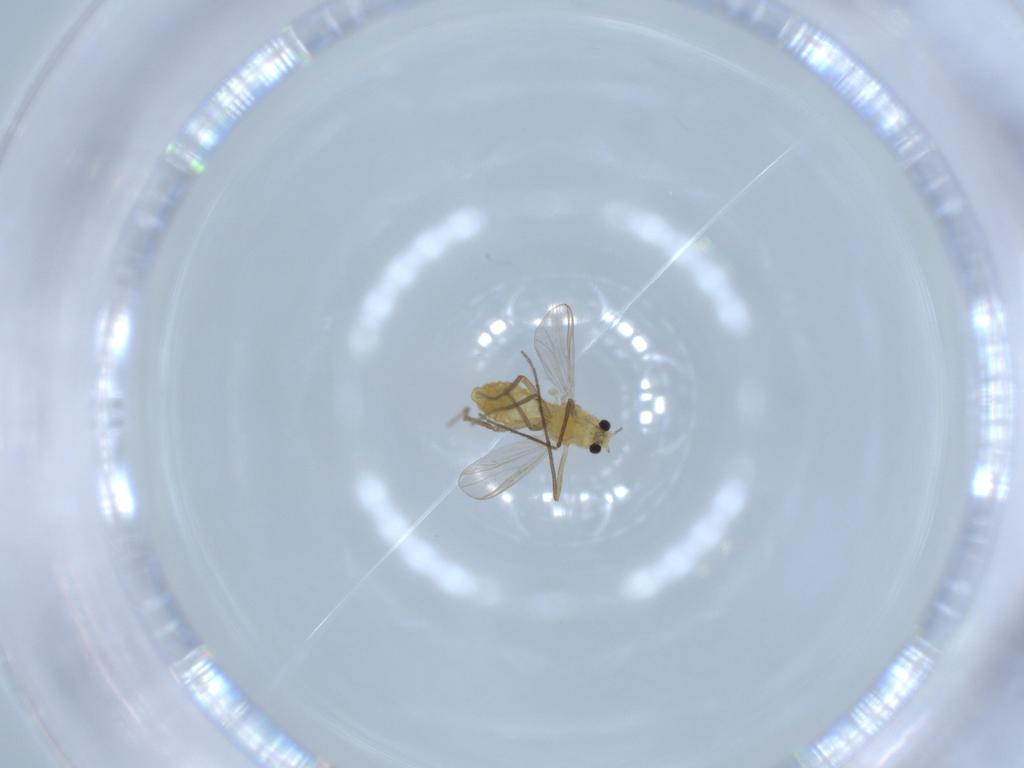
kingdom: Animalia
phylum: Arthropoda
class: Insecta
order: Diptera
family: Chironomidae
